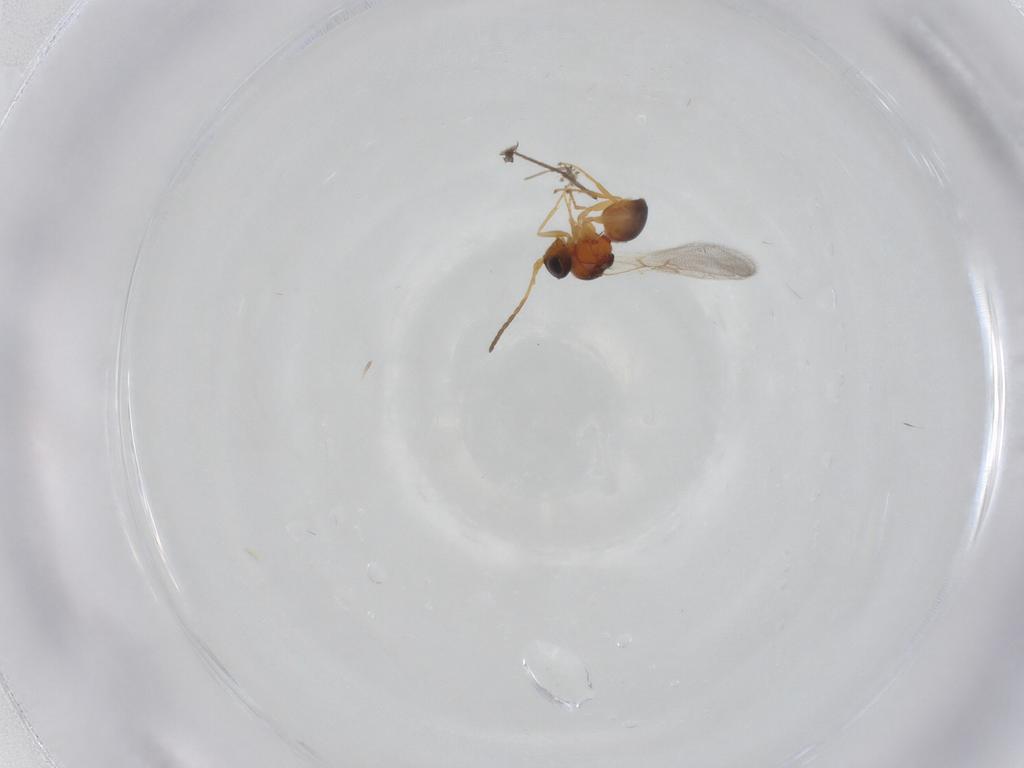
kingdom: Animalia
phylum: Arthropoda
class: Insecta
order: Hymenoptera
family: Figitidae
